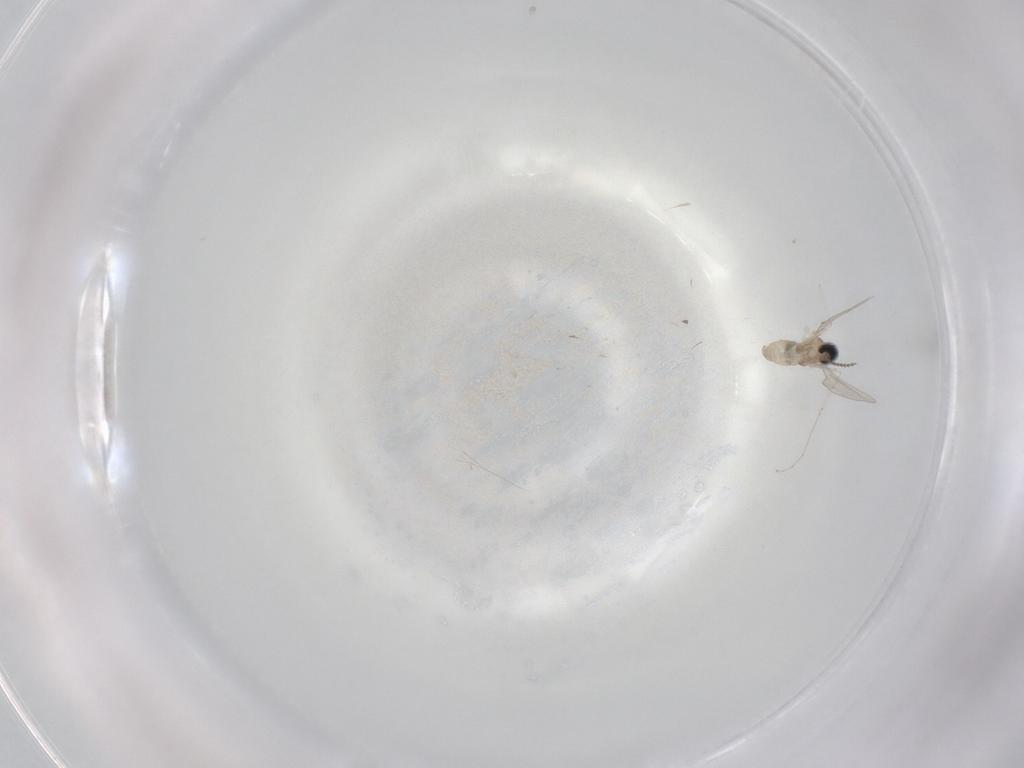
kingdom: Animalia
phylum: Arthropoda
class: Insecta
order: Diptera
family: Cecidomyiidae
